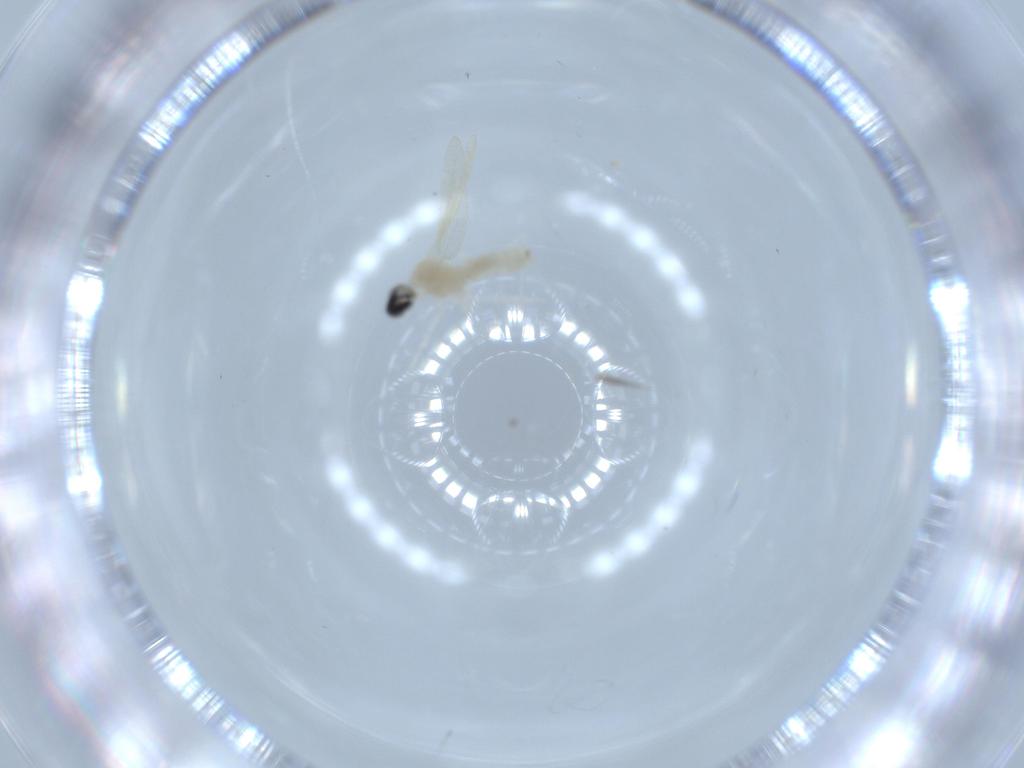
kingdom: Animalia
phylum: Arthropoda
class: Insecta
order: Diptera
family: Cecidomyiidae
